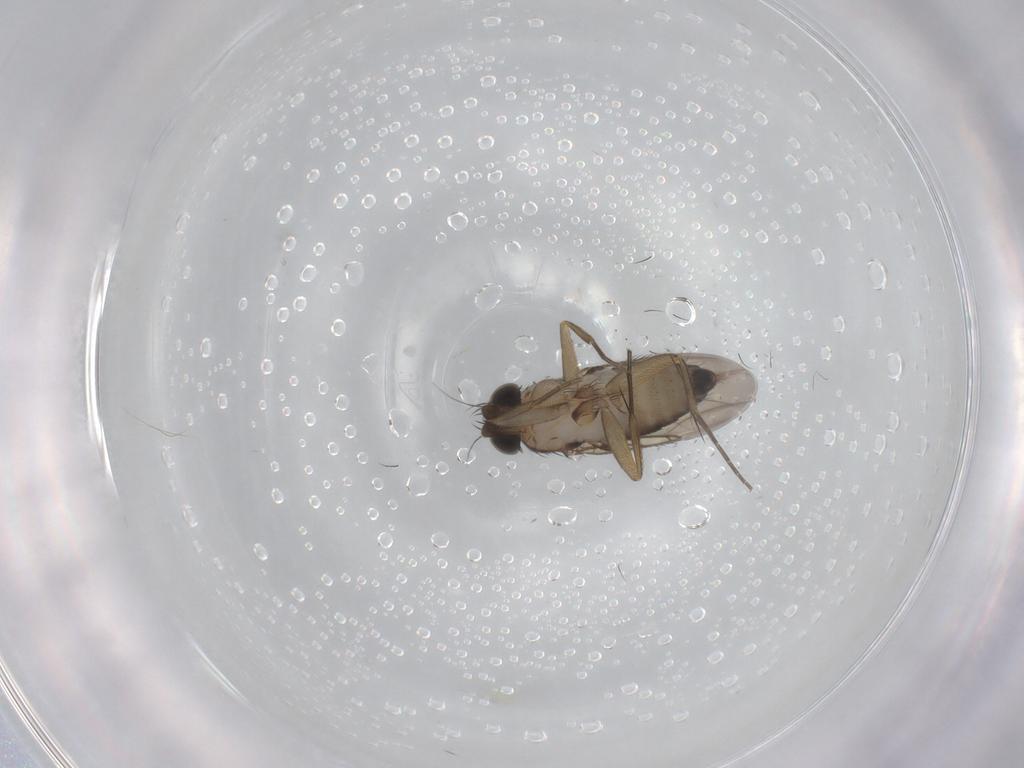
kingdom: Animalia
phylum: Arthropoda
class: Insecta
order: Diptera
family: Phoridae
